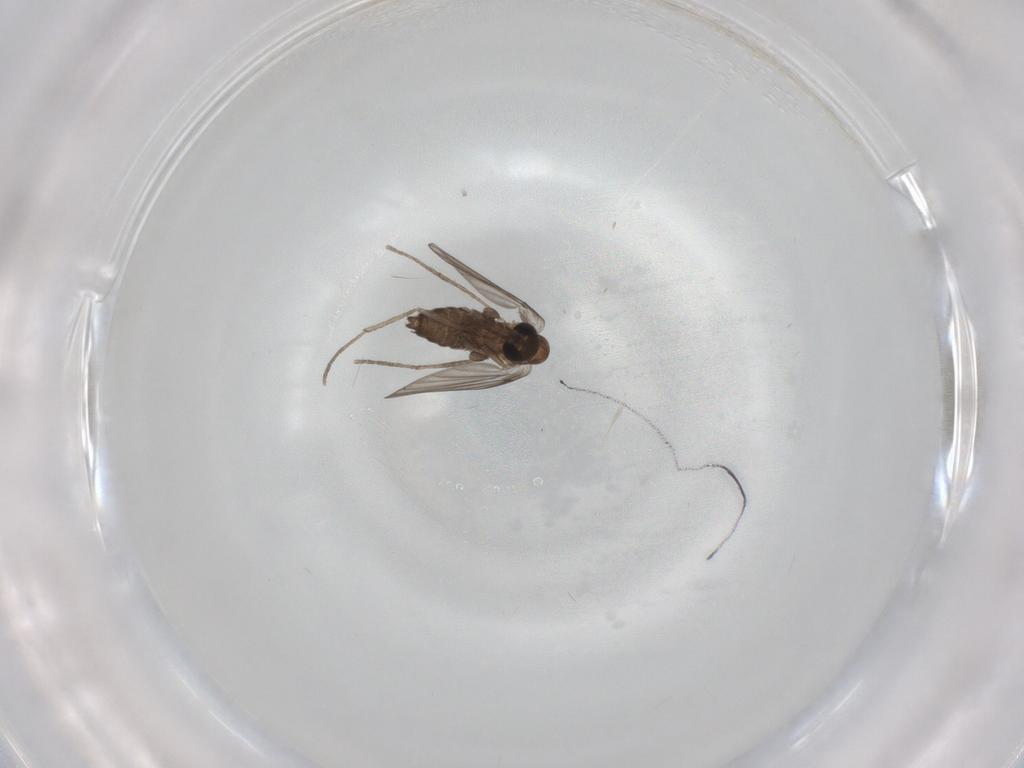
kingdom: Animalia
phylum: Arthropoda
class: Insecta
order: Diptera
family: Psychodidae
